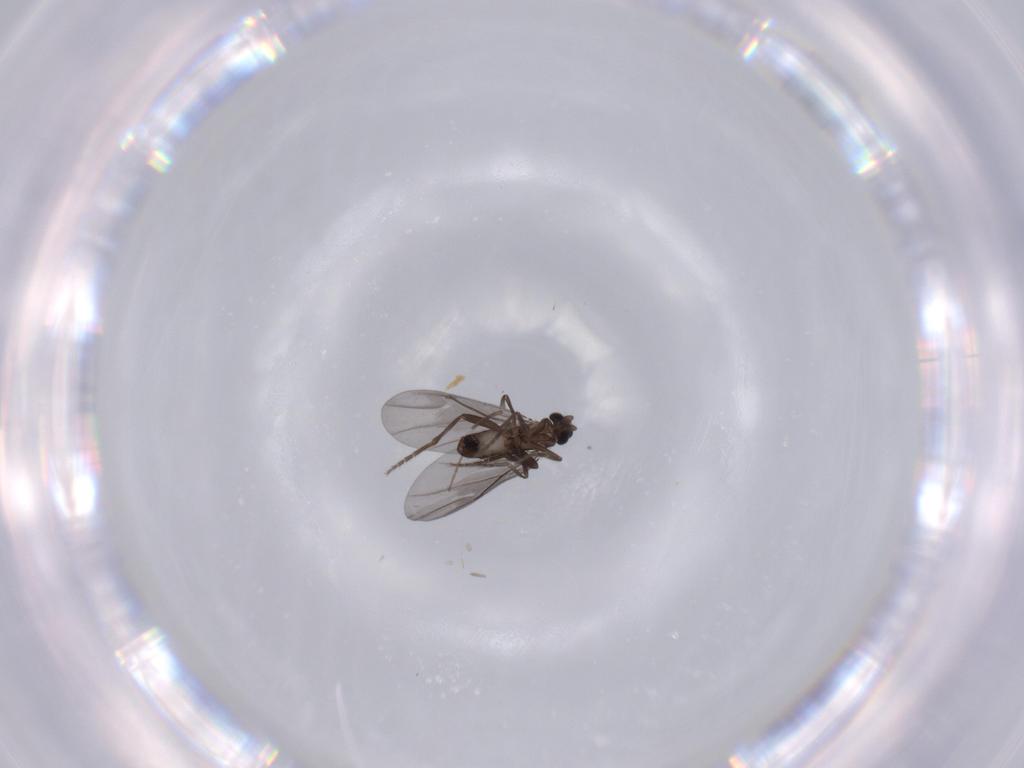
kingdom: Animalia
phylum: Arthropoda
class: Insecta
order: Diptera
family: Phoridae
